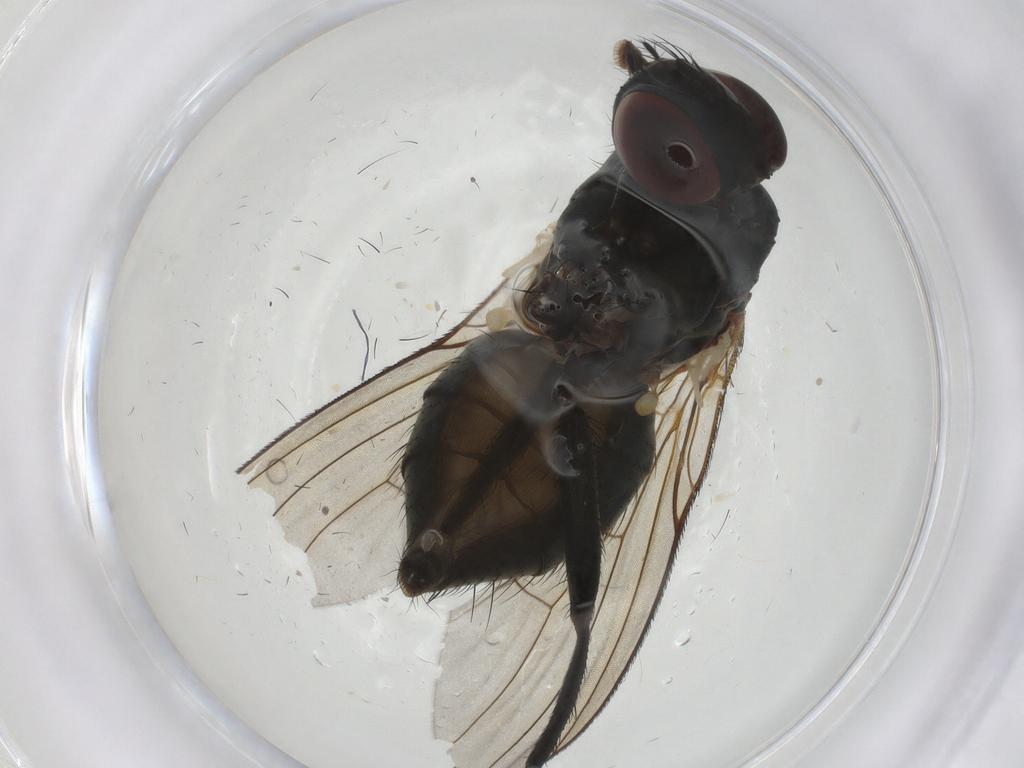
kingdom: Animalia
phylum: Arthropoda
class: Insecta
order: Diptera
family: Muscidae
